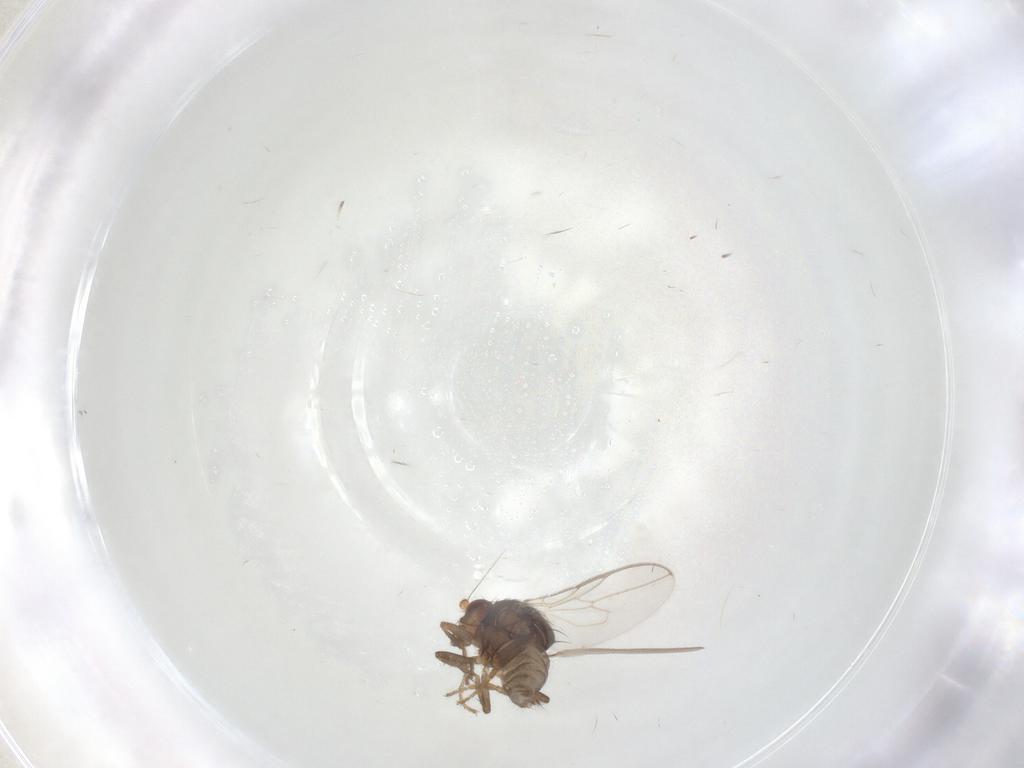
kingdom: Animalia
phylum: Arthropoda
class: Insecta
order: Diptera
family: Sphaeroceridae
